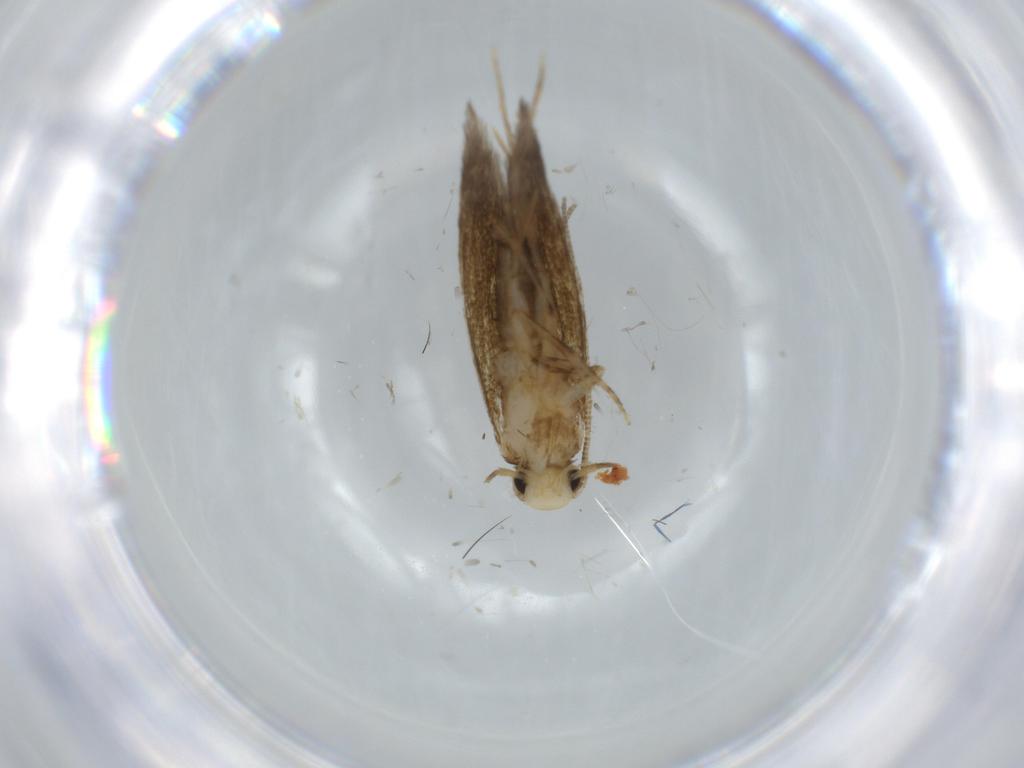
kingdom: Animalia
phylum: Arthropoda
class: Insecta
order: Lepidoptera
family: Tineidae
